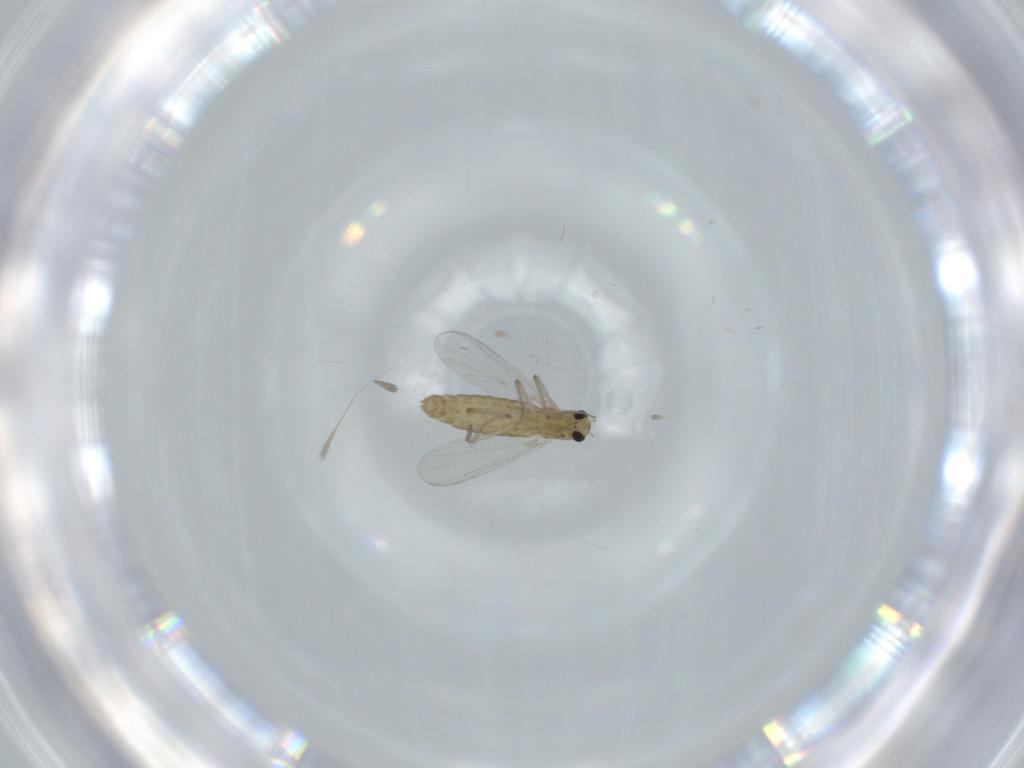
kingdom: Animalia
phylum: Arthropoda
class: Insecta
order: Diptera
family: Chironomidae
